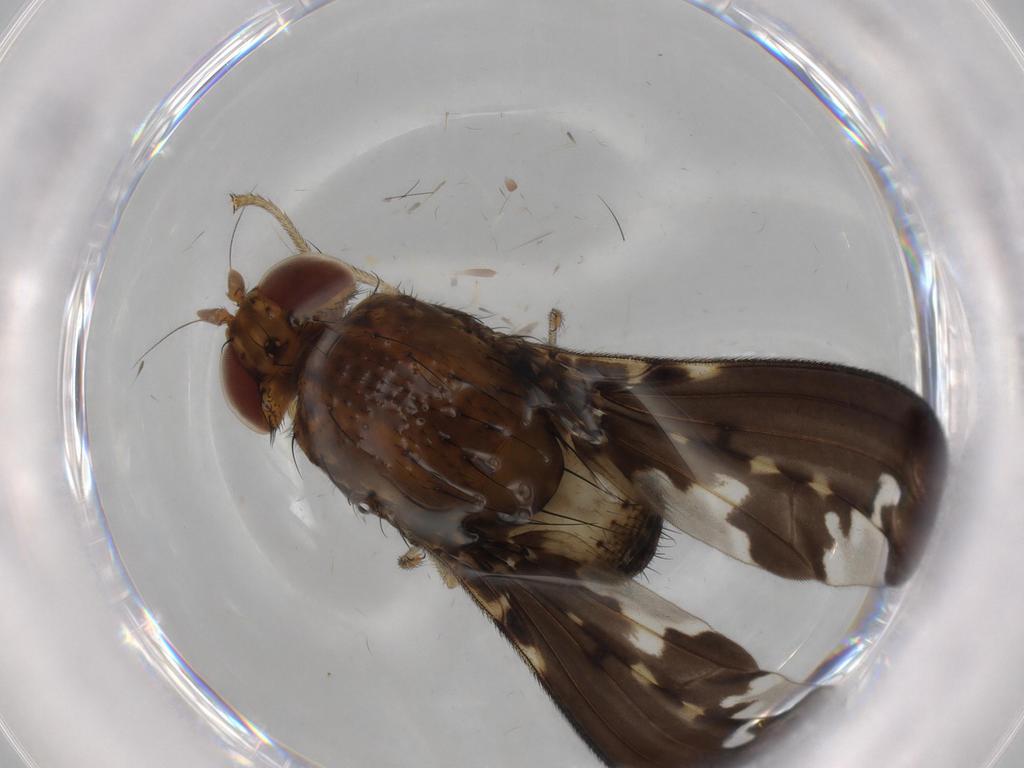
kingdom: Animalia
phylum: Arthropoda
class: Insecta
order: Diptera
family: Lauxaniidae
